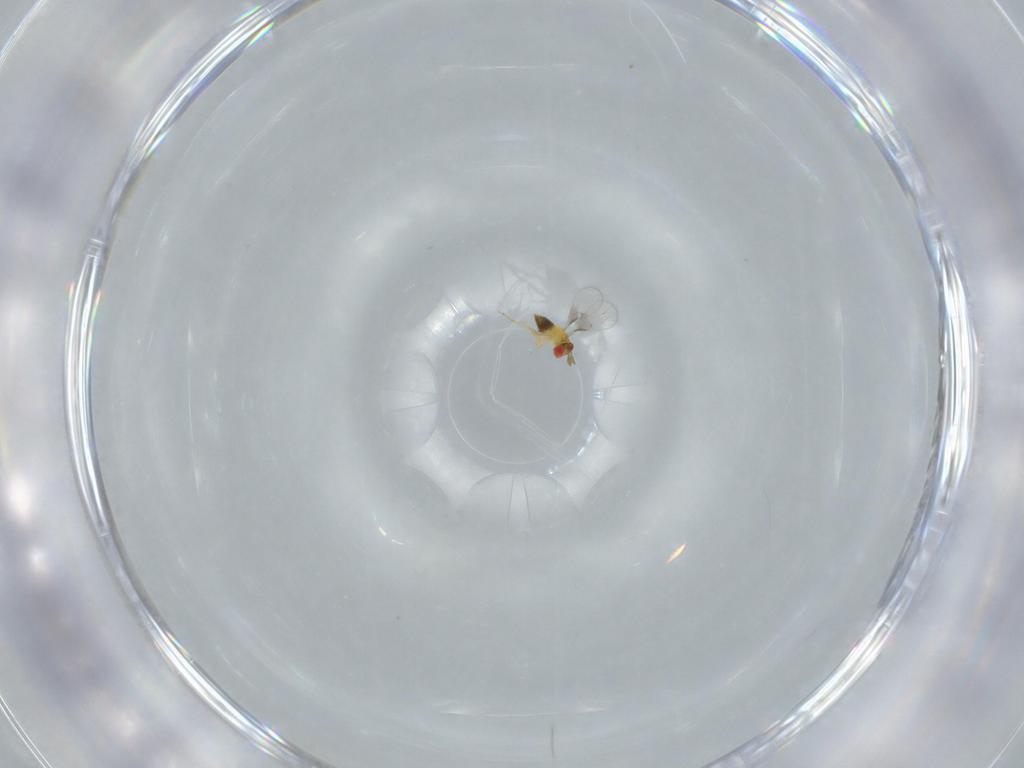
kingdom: Animalia
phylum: Arthropoda
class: Insecta
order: Hymenoptera
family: Trichogrammatidae
